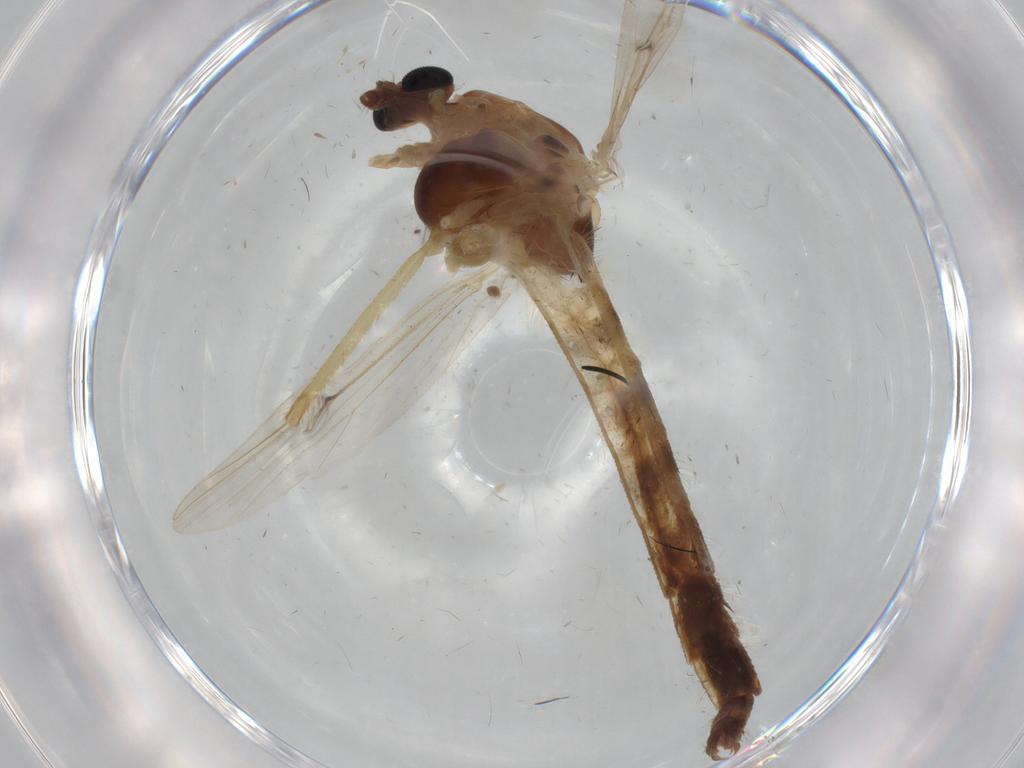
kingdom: Animalia
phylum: Arthropoda
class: Insecta
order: Diptera
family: Chironomidae
